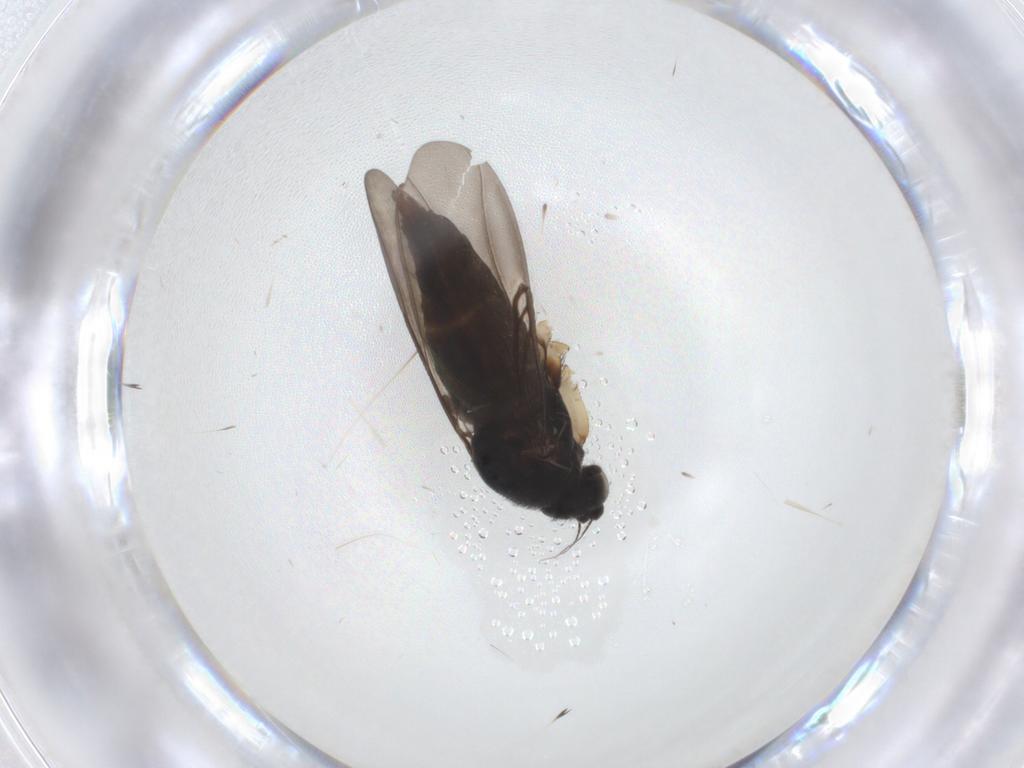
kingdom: Animalia
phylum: Arthropoda
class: Insecta
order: Diptera
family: Phoridae
